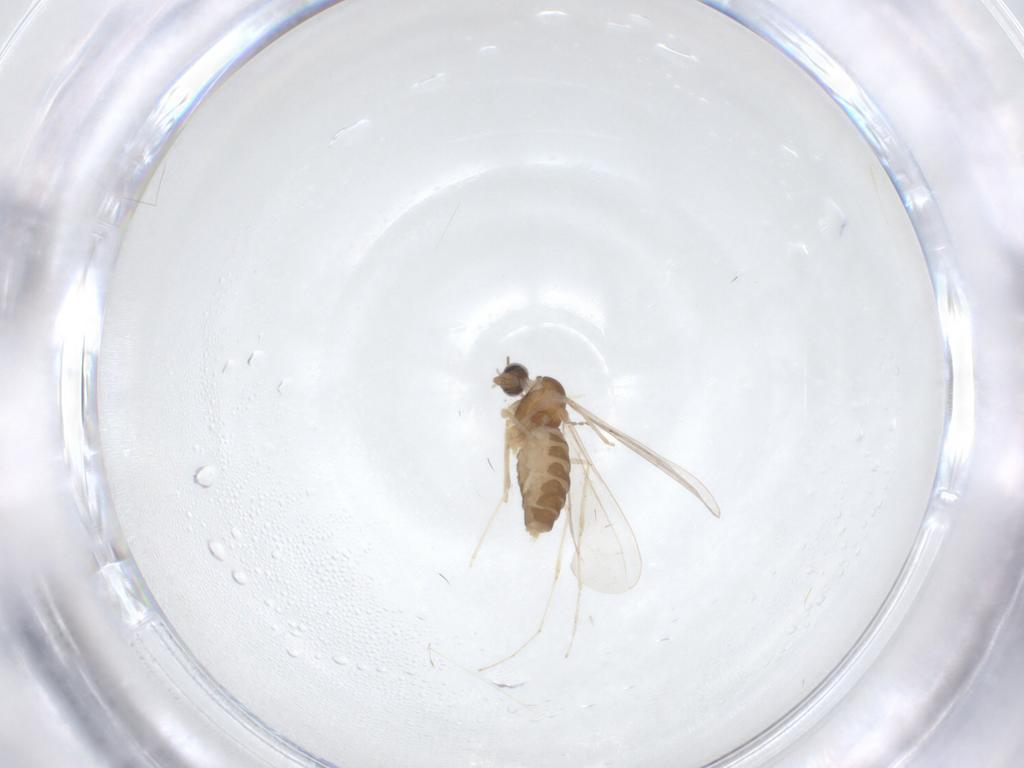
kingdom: Animalia
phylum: Arthropoda
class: Insecta
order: Diptera
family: Cecidomyiidae
